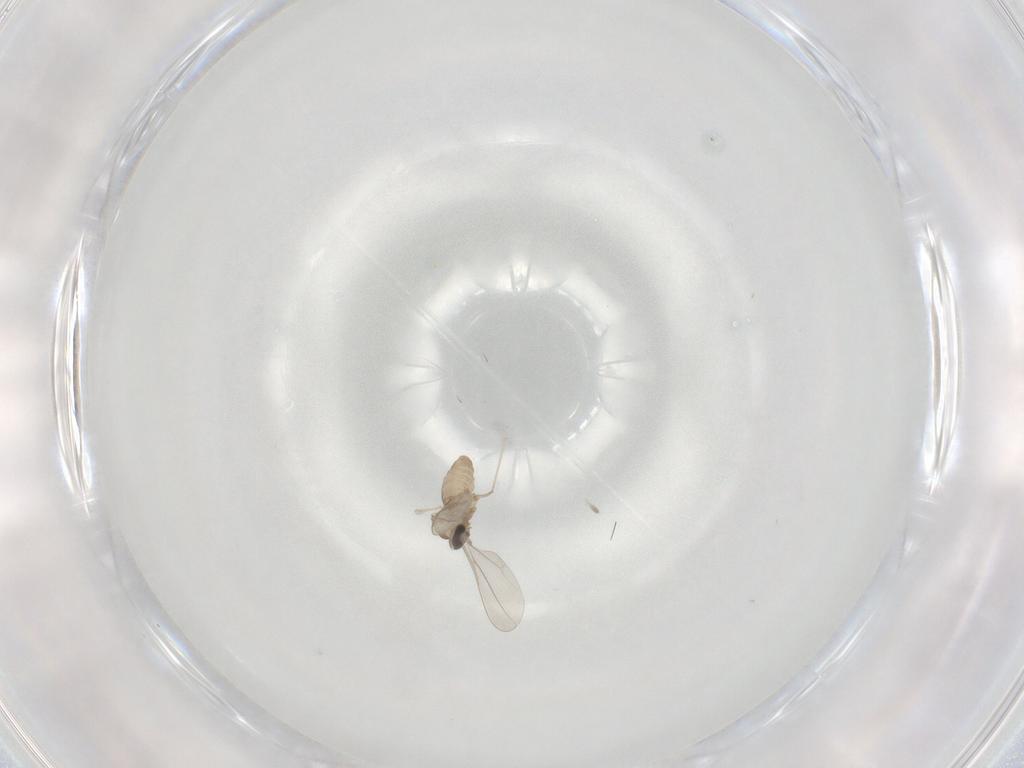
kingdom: Animalia
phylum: Arthropoda
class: Insecta
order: Diptera
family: Cecidomyiidae
